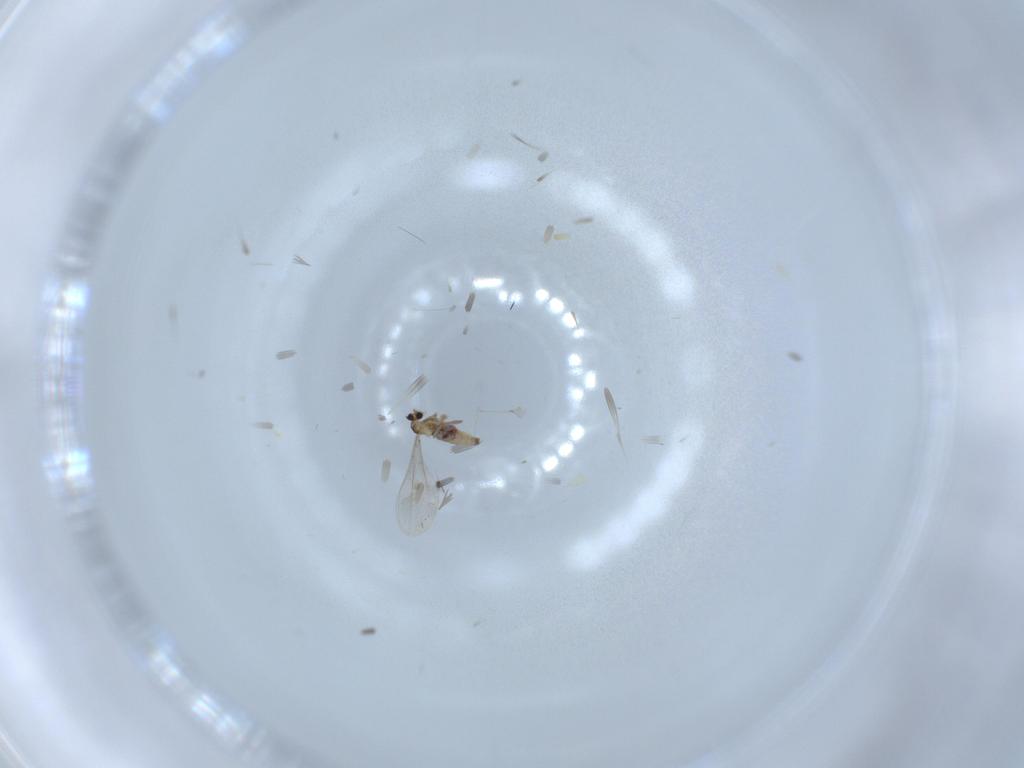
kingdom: Animalia
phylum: Arthropoda
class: Insecta
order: Diptera
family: Cecidomyiidae
